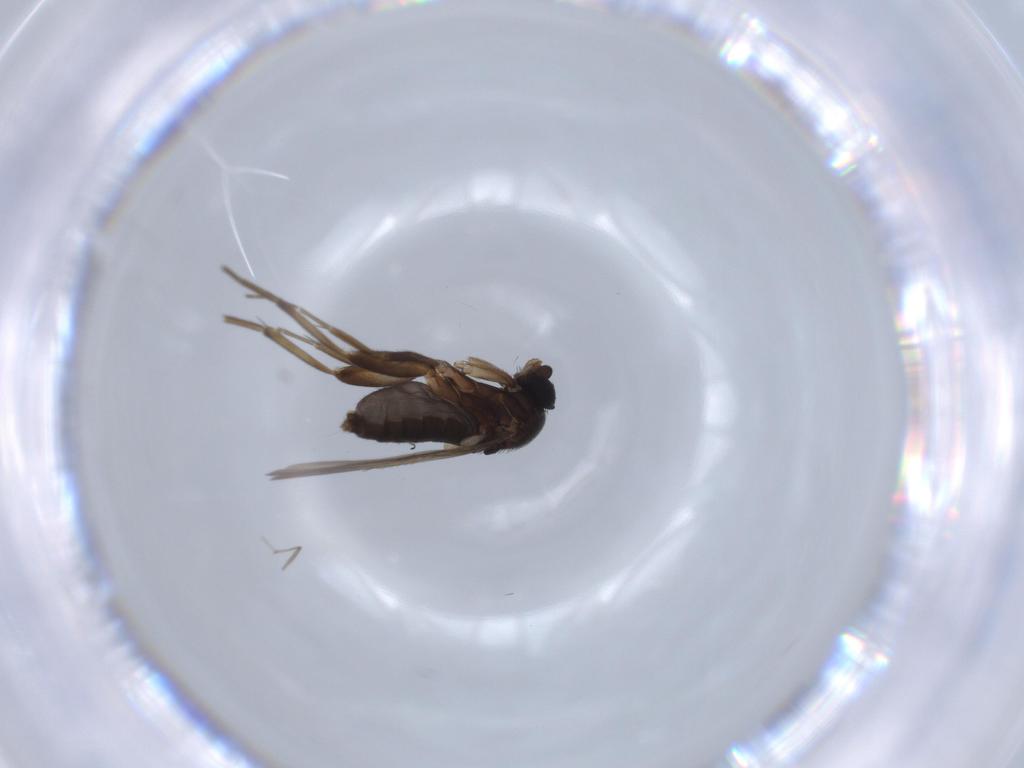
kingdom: Animalia
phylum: Arthropoda
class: Insecta
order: Diptera
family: Phoridae
